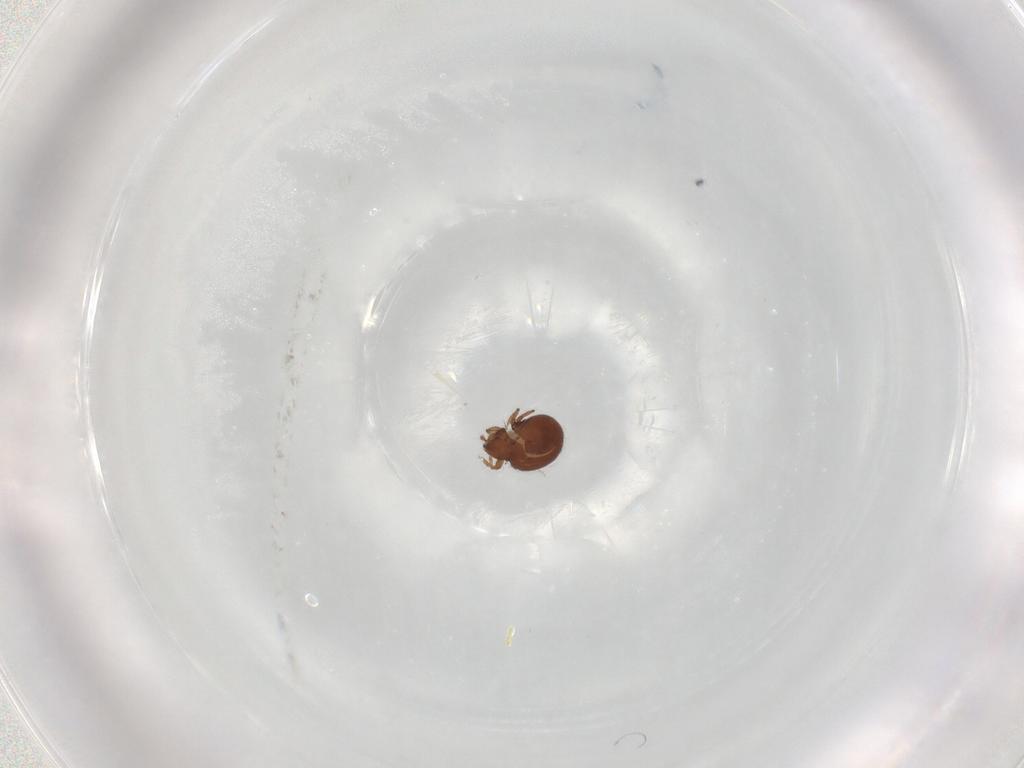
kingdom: Animalia
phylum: Arthropoda
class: Arachnida
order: Sarcoptiformes
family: Oribatulidae
